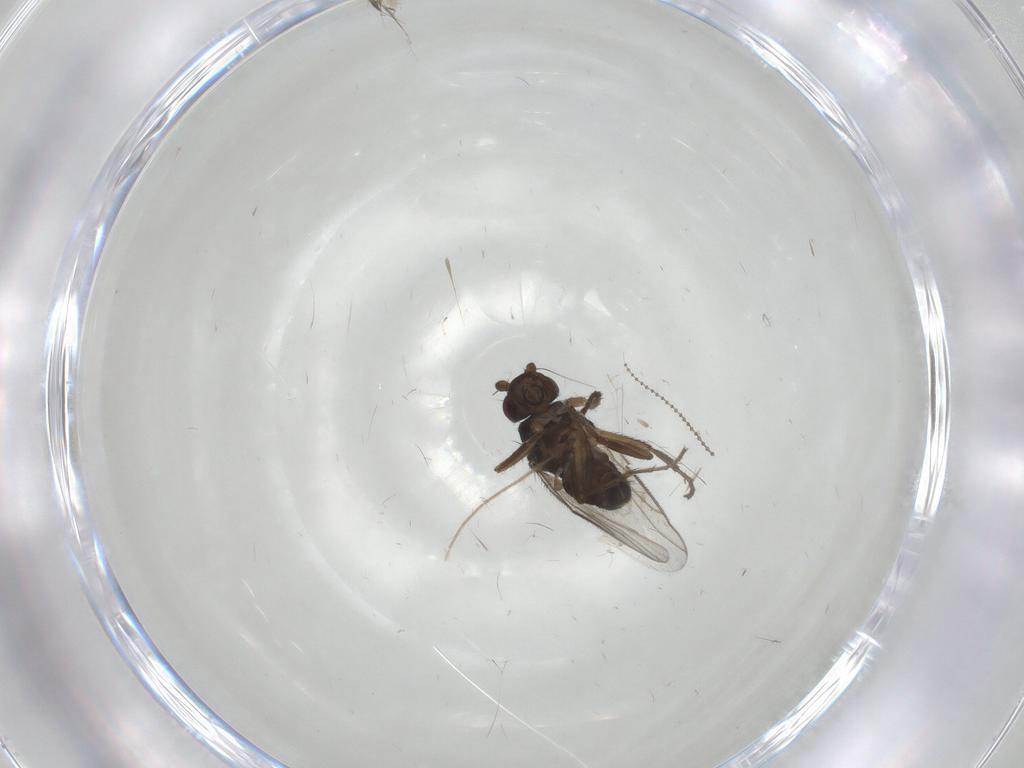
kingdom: Animalia
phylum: Arthropoda
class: Insecta
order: Diptera
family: Cecidomyiidae
